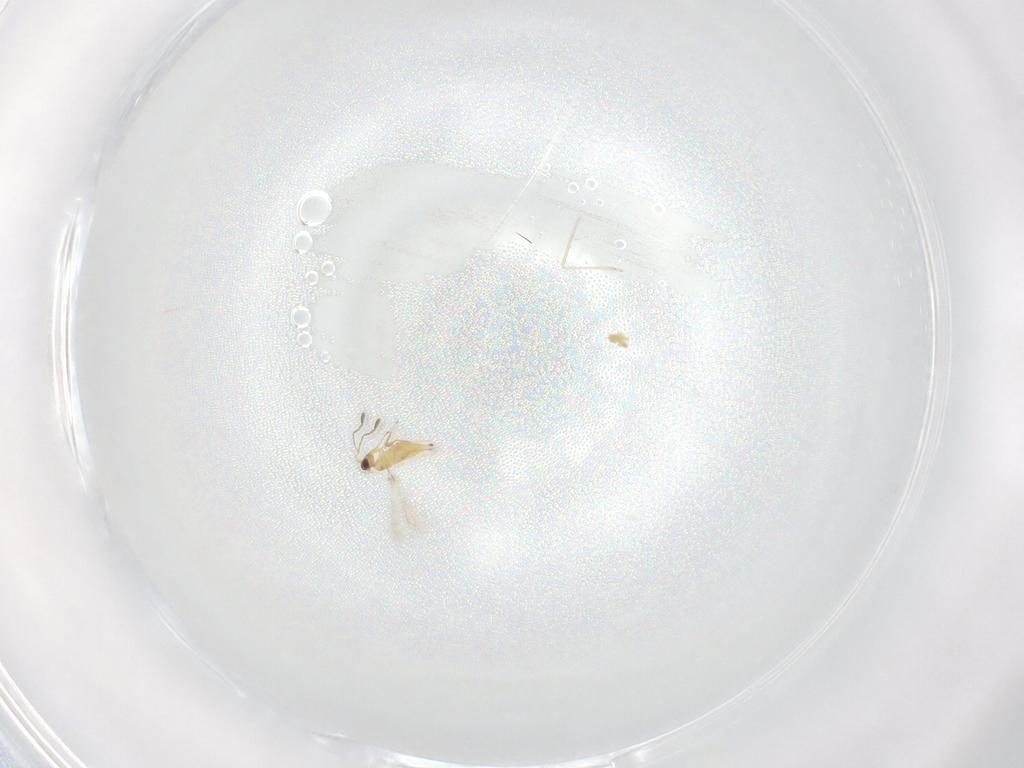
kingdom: Animalia
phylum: Arthropoda
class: Insecta
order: Hymenoptera
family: Mymaridae
